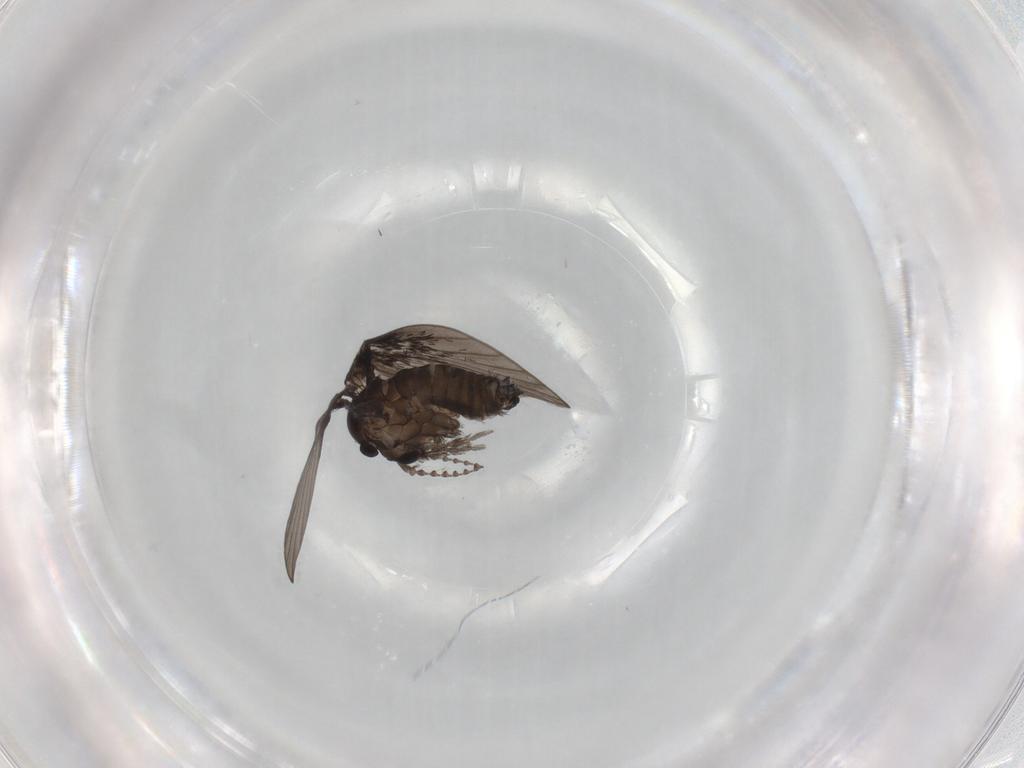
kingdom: Animalia
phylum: Arthropoda
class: Insecta
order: Diptera
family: Psychodidae
